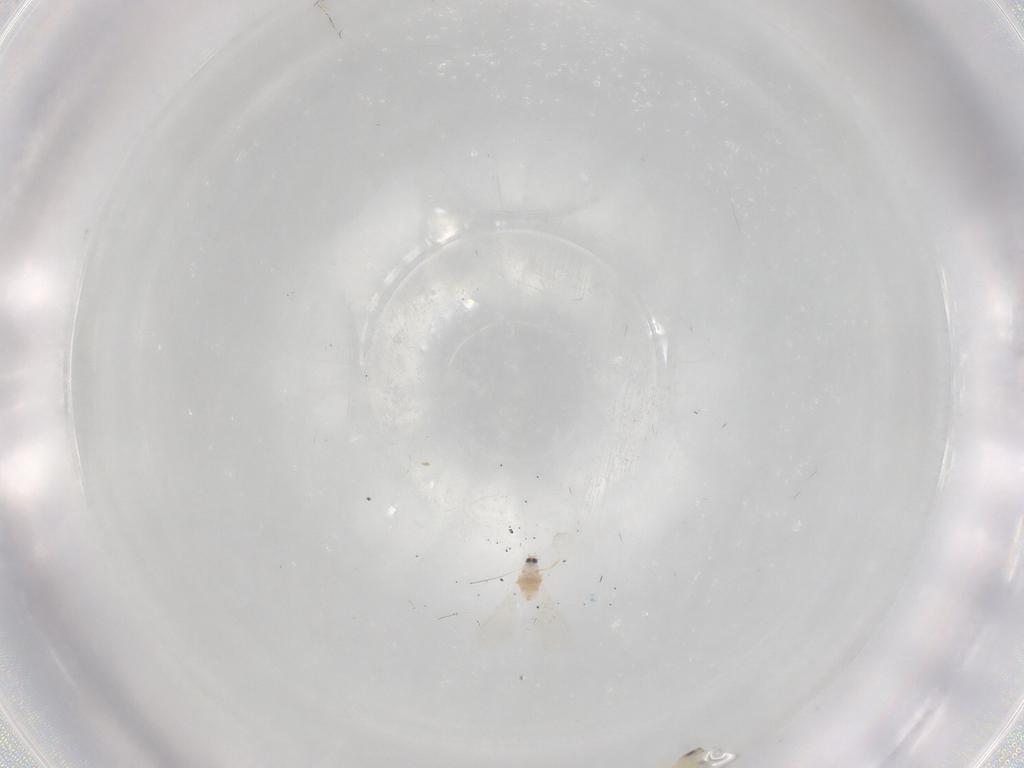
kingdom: Animalia
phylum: Arthropoda
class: Insecta
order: Hemiptera
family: Aleyrodidae
